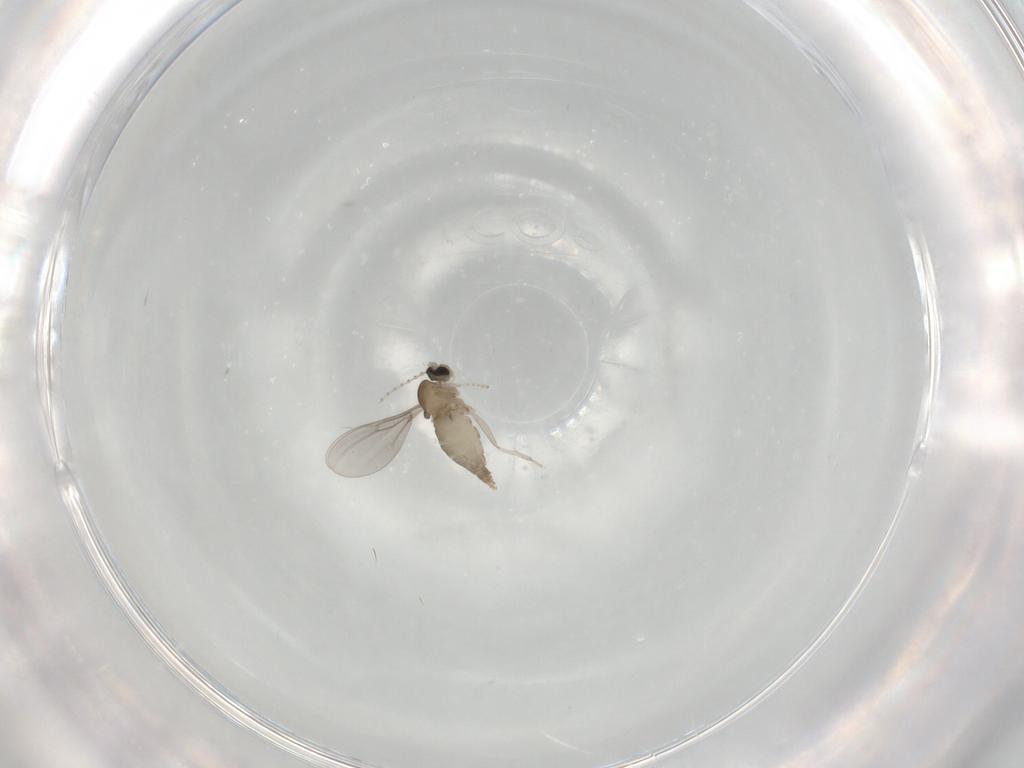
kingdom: Animalia
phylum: Arthropoda
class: Insecta
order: Diptera
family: Cecidomyiidae
